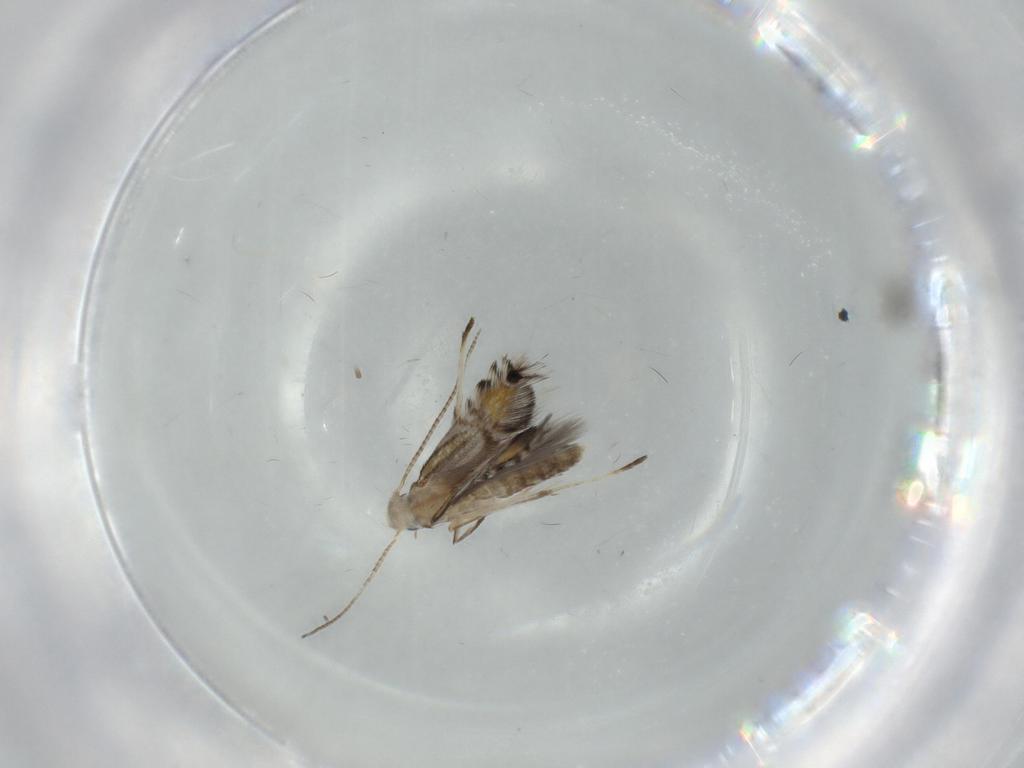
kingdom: Animalia
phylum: Arthropoda
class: Insecta
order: Lepidoptera
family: Nepticulidae
